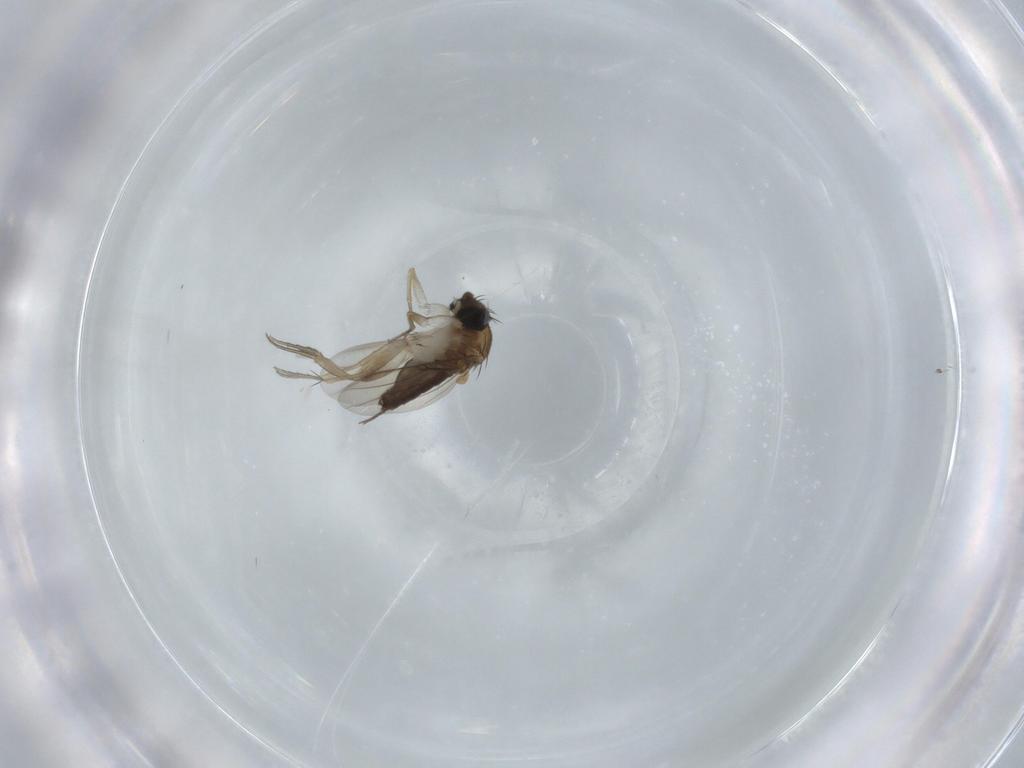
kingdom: Animalia
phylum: Arthropoda
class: Insecta
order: Diptera
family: Phoridae
